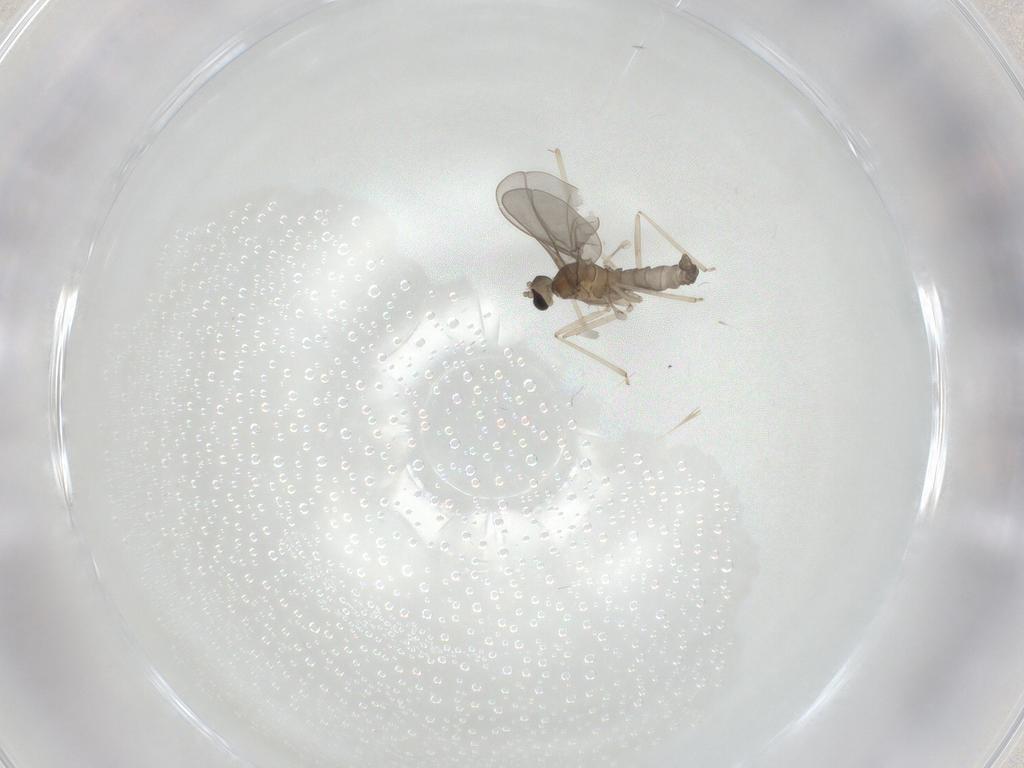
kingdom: Animalia
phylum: Arthropoda
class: Insecta
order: Diptera
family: Cecidomyiidae
